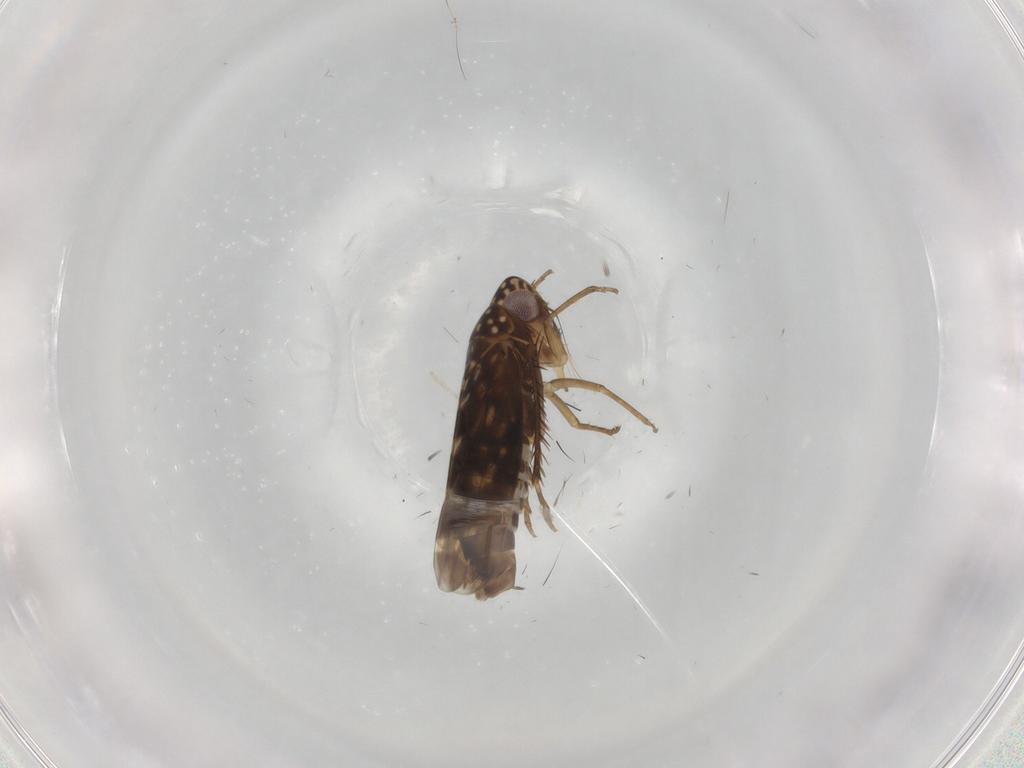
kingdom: Animalia
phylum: Arthropoda
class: Insecta
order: Hemiptera
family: Cicadellidae
